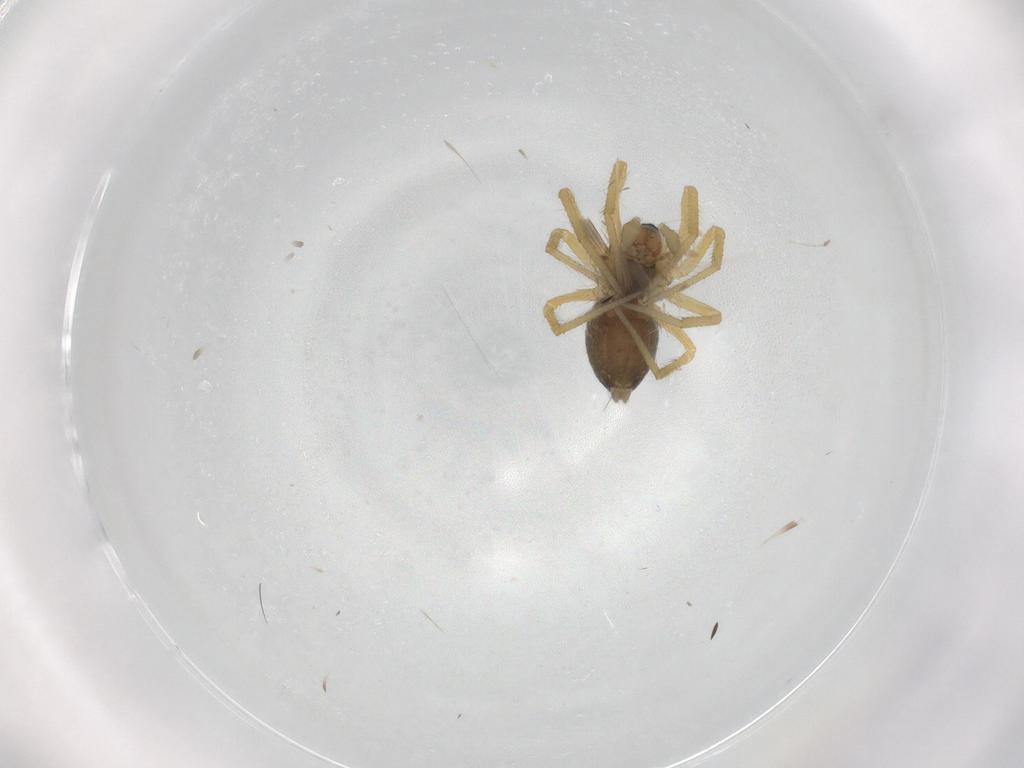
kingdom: Animalia
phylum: Arthropoda
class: Arachnida
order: Araneae
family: Linyphiidae
